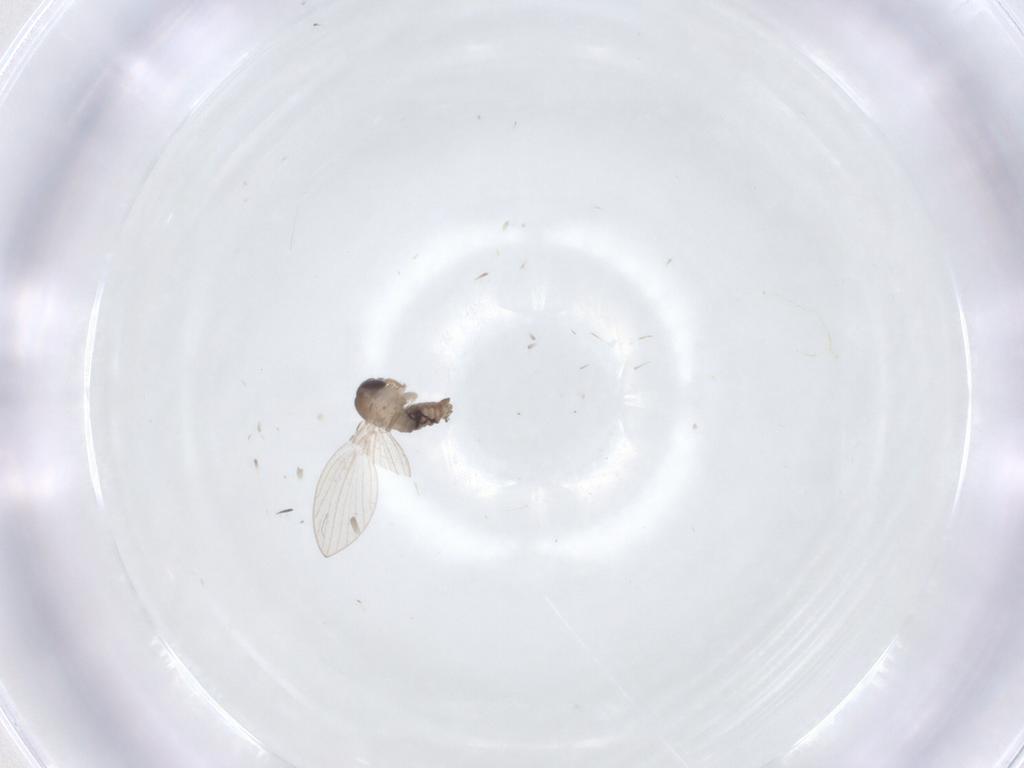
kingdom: Animalia
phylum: Arthropoda
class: Insecta
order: Diptera
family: Psychodidae
